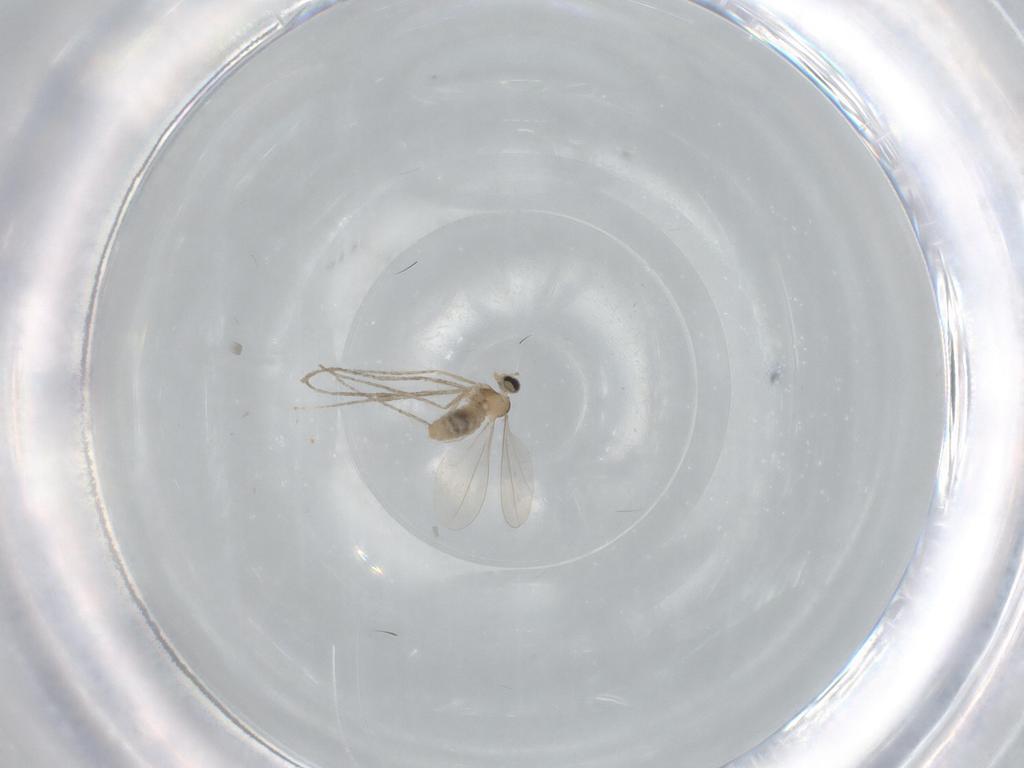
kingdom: Animalia
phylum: Arthropoda
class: Insecta
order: Diptera
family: Cecidomyiidae
